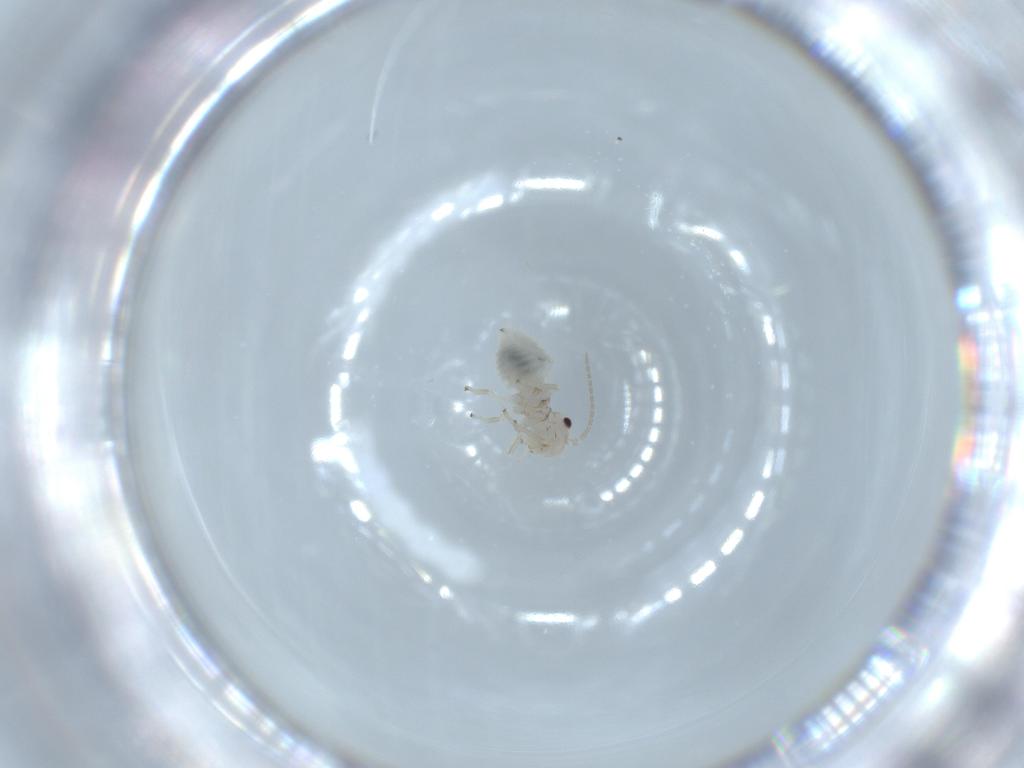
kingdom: Animalia
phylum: Arthropoda
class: Insecta
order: Psocodea
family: Amphipsocidae
